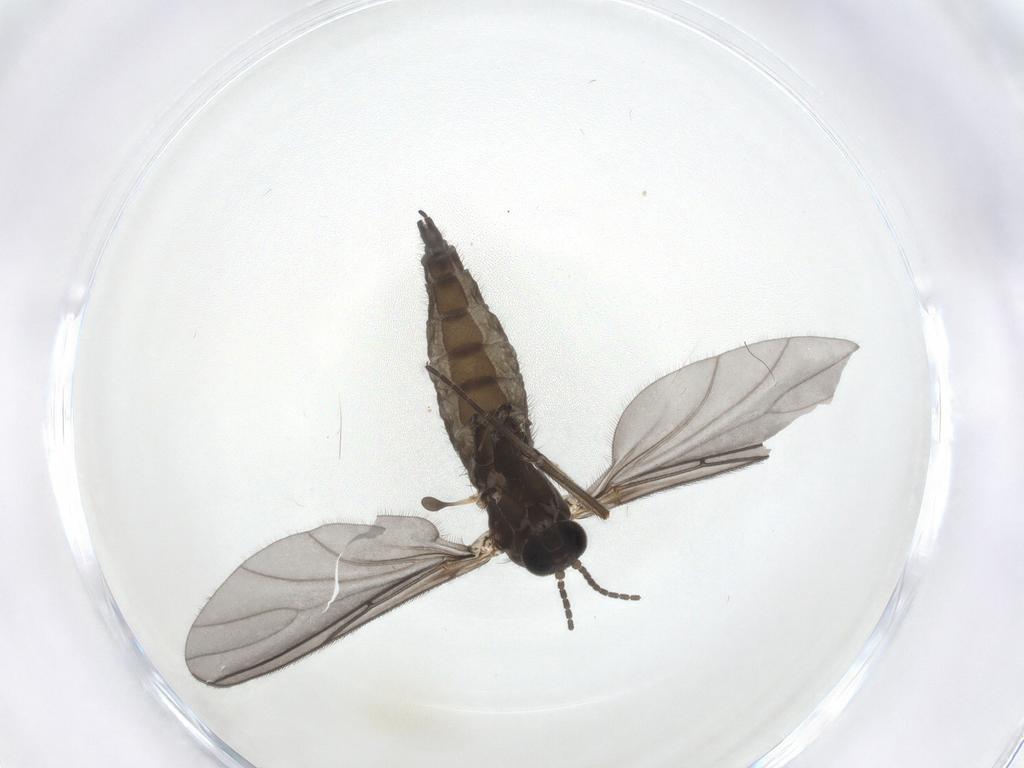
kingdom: Animalia
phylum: Arthropoda
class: Insecta
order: Diptera
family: Sciaridae
